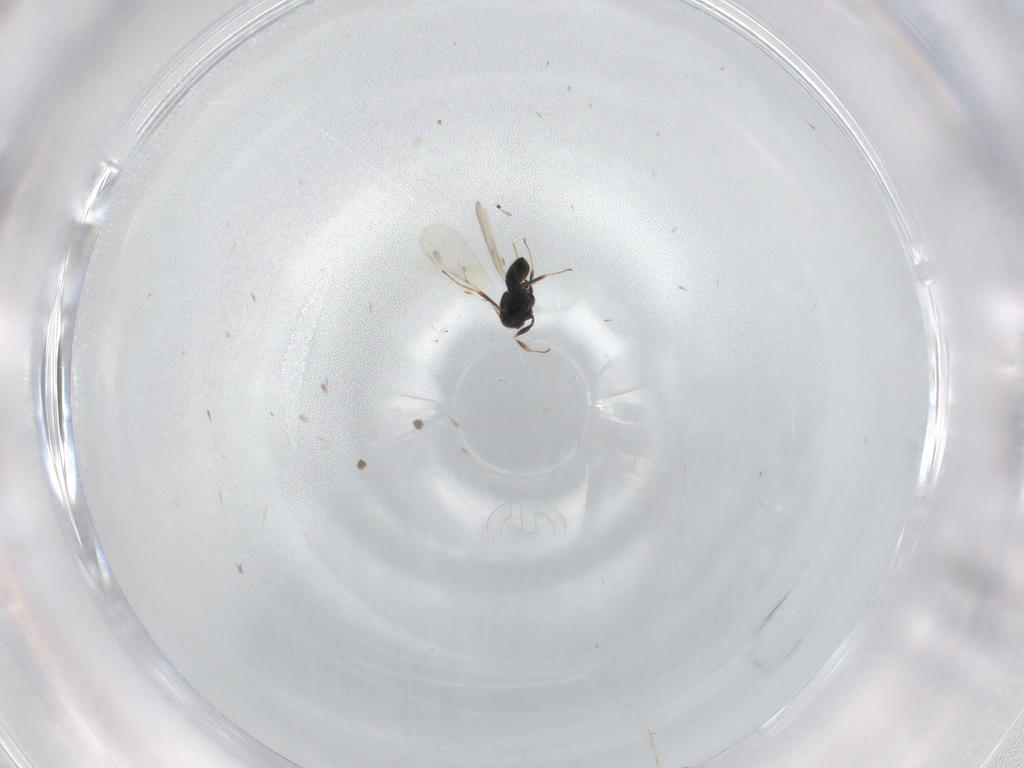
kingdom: Animalia
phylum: Arthropoda
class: Insecta
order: Hymenoptera
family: Scelionidae
